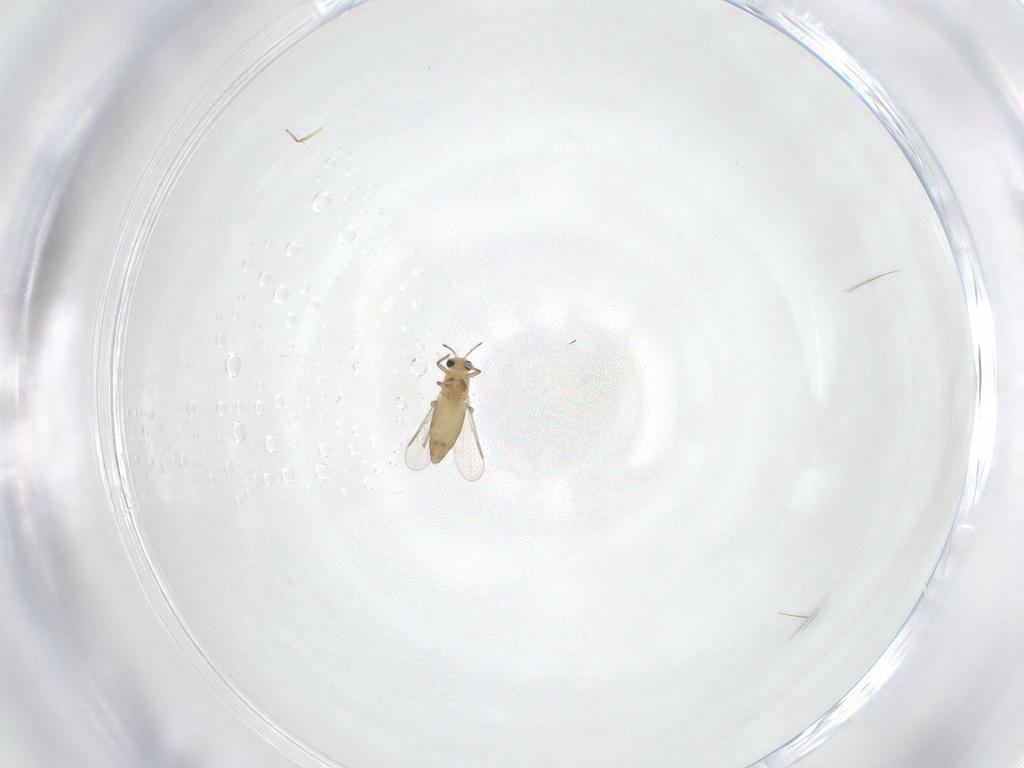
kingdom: Animalia
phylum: Arthropoda
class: Insecta
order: Diptera
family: Chironomidae
